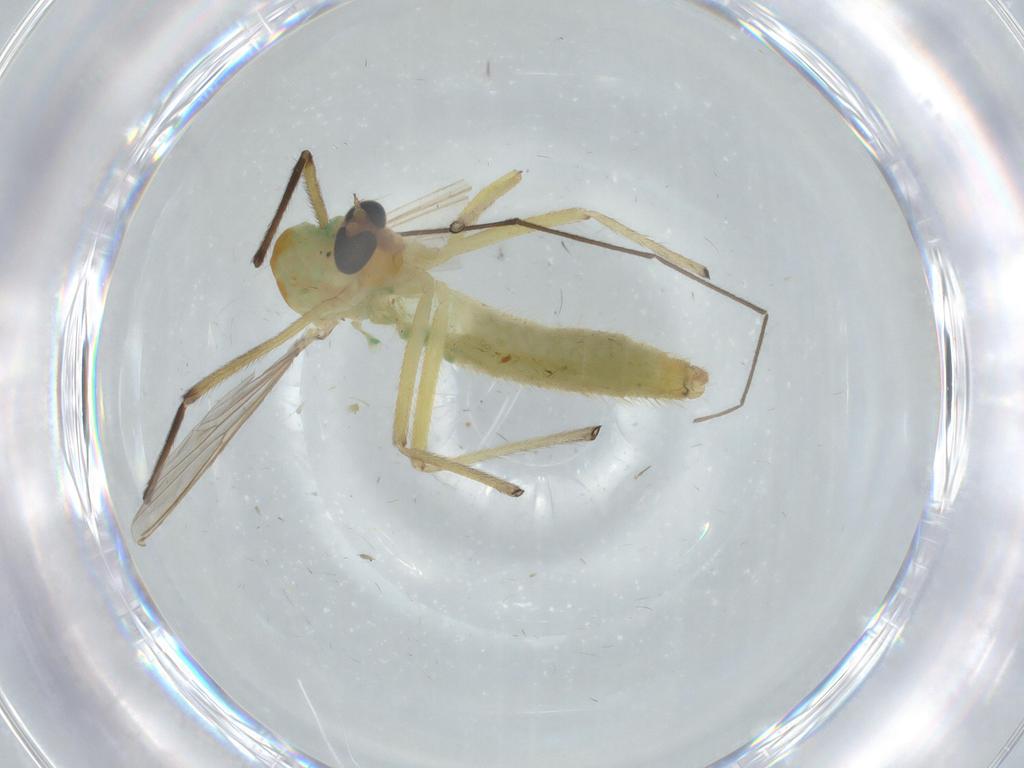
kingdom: Animalia
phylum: Arthropoda
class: Insecta
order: Diptera
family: Chironomidae
